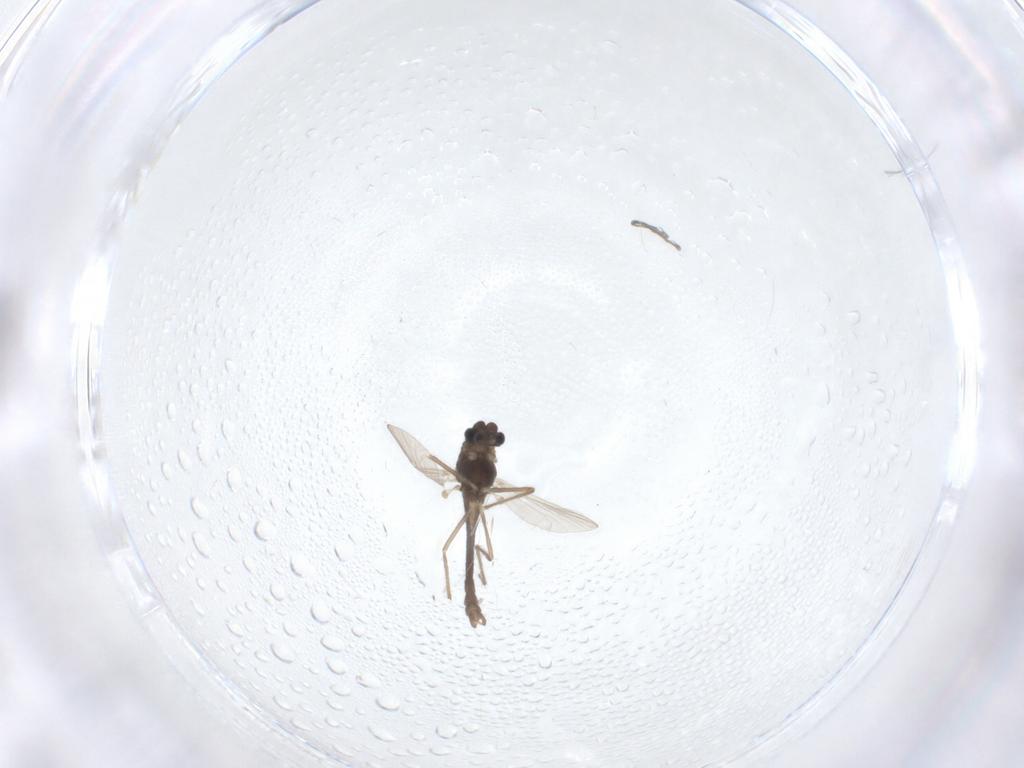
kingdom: Animalia
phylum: Arthropoda
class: Insecta
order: Diptera
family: Chironomidae
